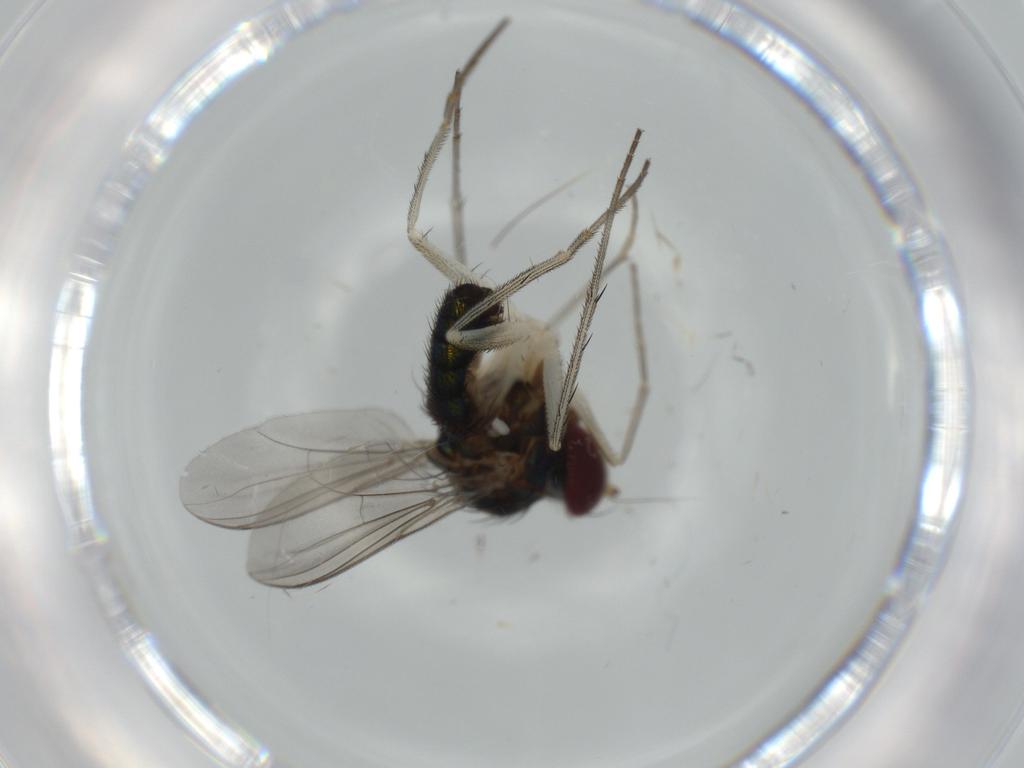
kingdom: Animalia
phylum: Arthropoda
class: Insecta
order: Diptera
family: Dolichopodidae
